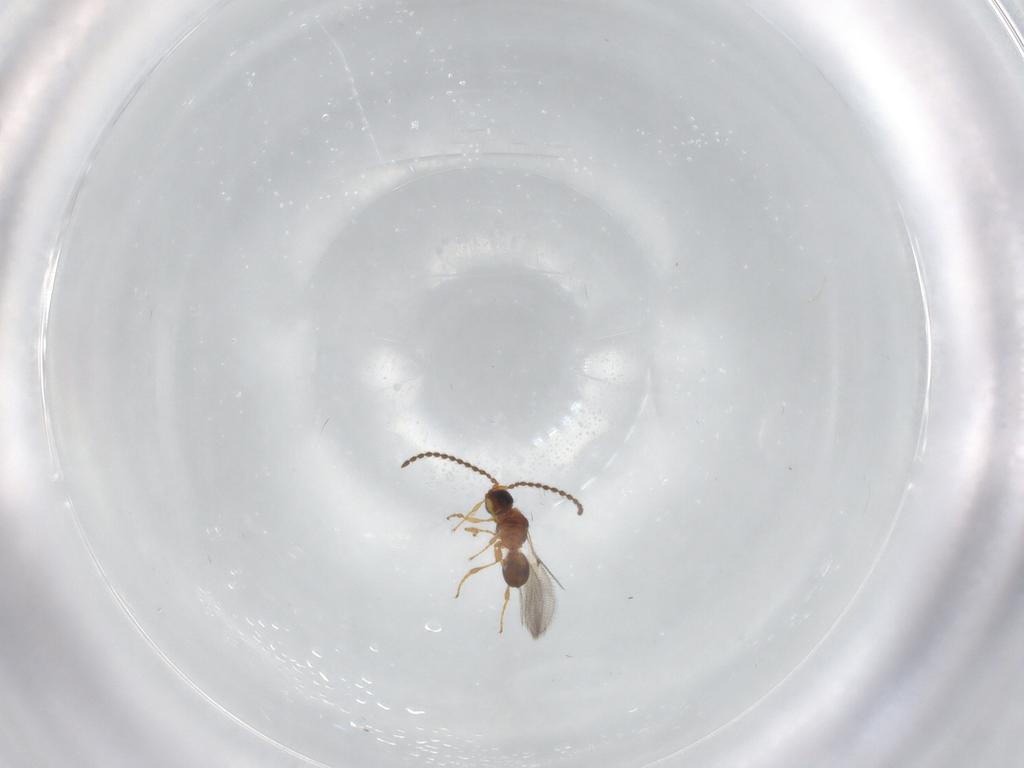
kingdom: Animalia
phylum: Arthropoda
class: Insecta
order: Hymenoptera
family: Diapriidae
